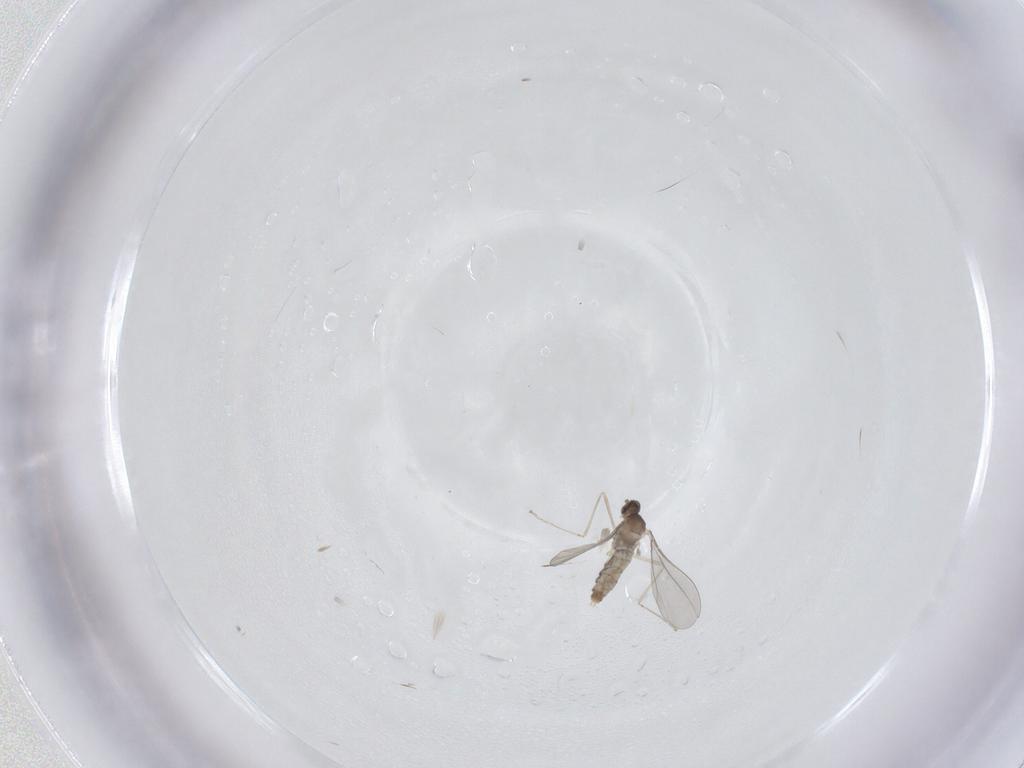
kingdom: Animalia
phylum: Arthropoda
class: Insecta
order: Diptera
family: Cecidomyiidae
